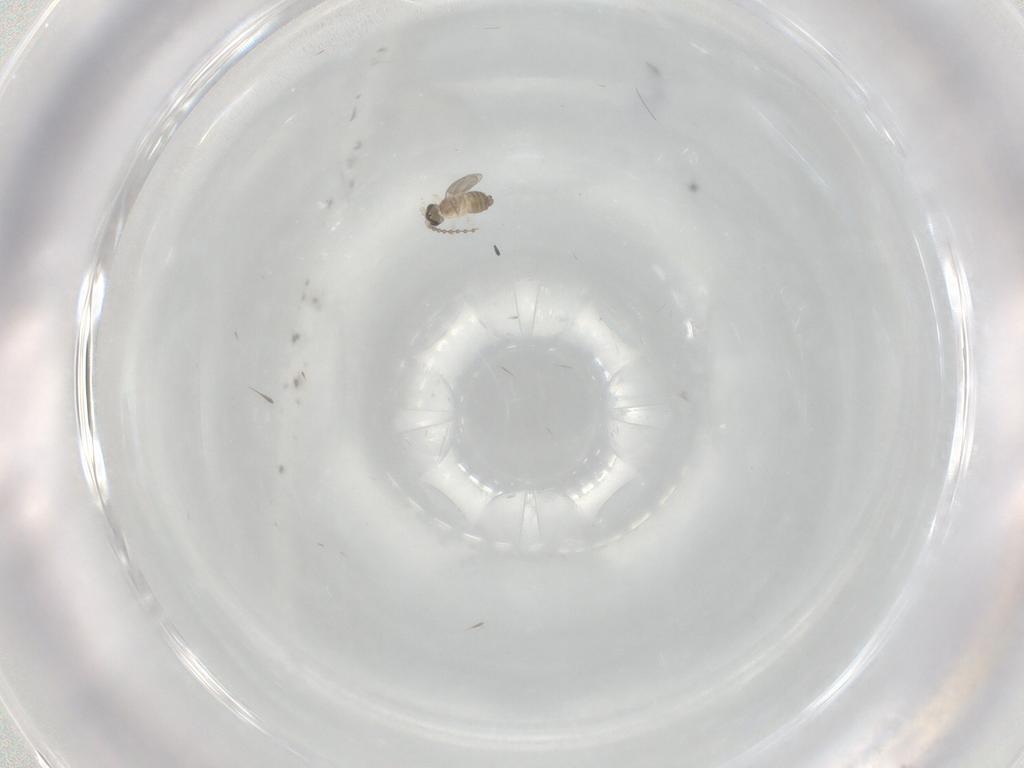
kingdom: Animalia
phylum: Arthropoda
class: Insecta
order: Diptera
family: Cecidomyiidae
